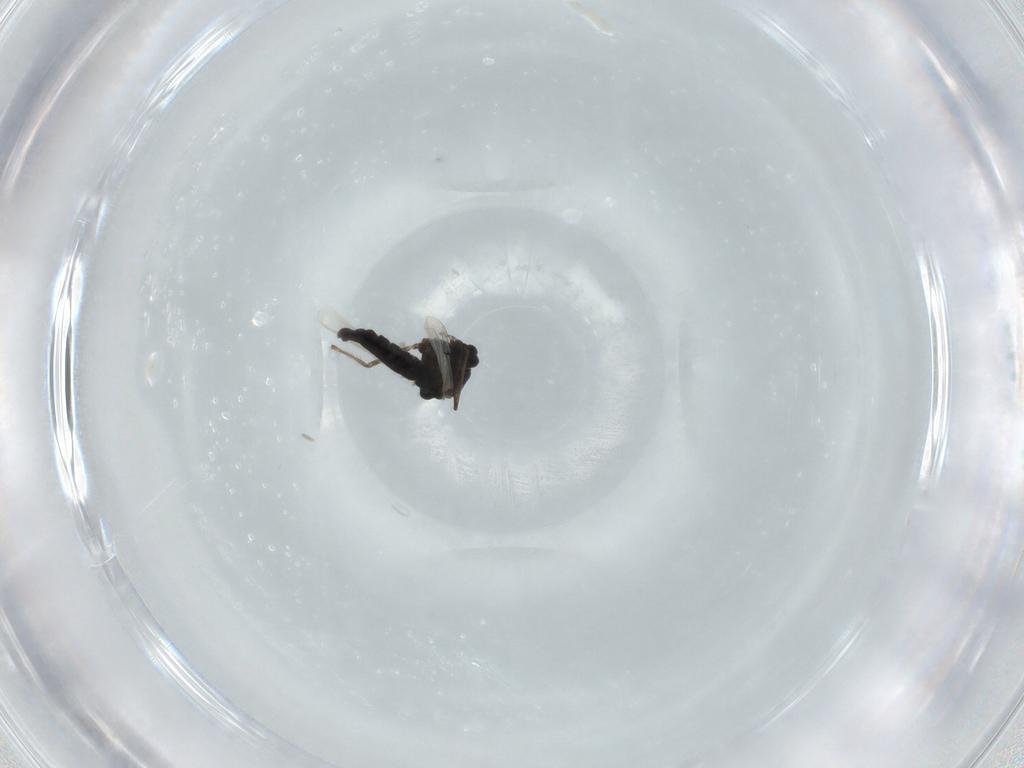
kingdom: Animalia
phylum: Arthropoda
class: Insecta
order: Diptera
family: Chironomidae
